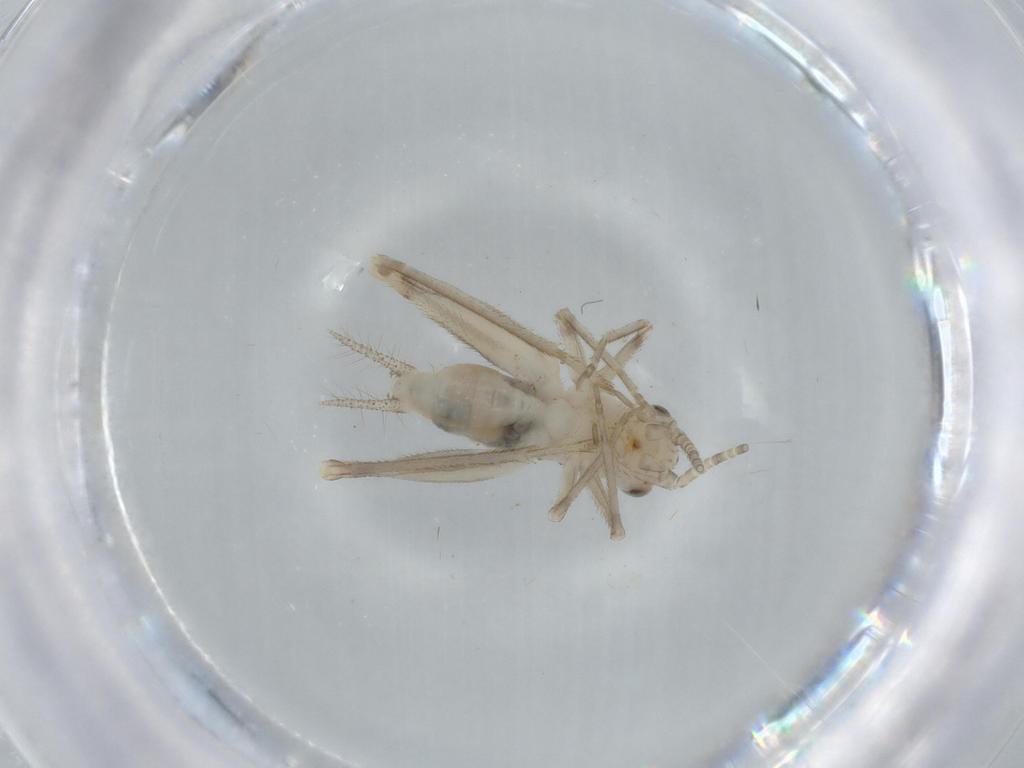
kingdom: Animalia
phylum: Arthropoda
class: Insecta
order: Orthoptera
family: Trigonidiidae
